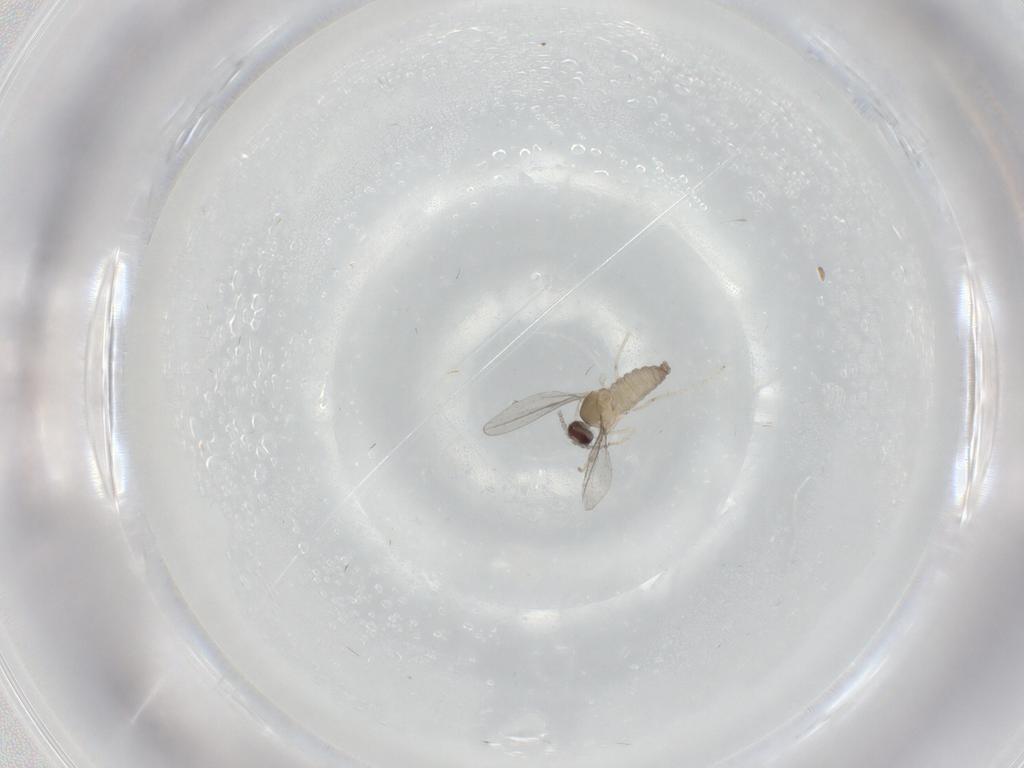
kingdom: Animalia
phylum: Arthropoda
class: Insecta
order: Diptera
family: Cecidomyiidae
